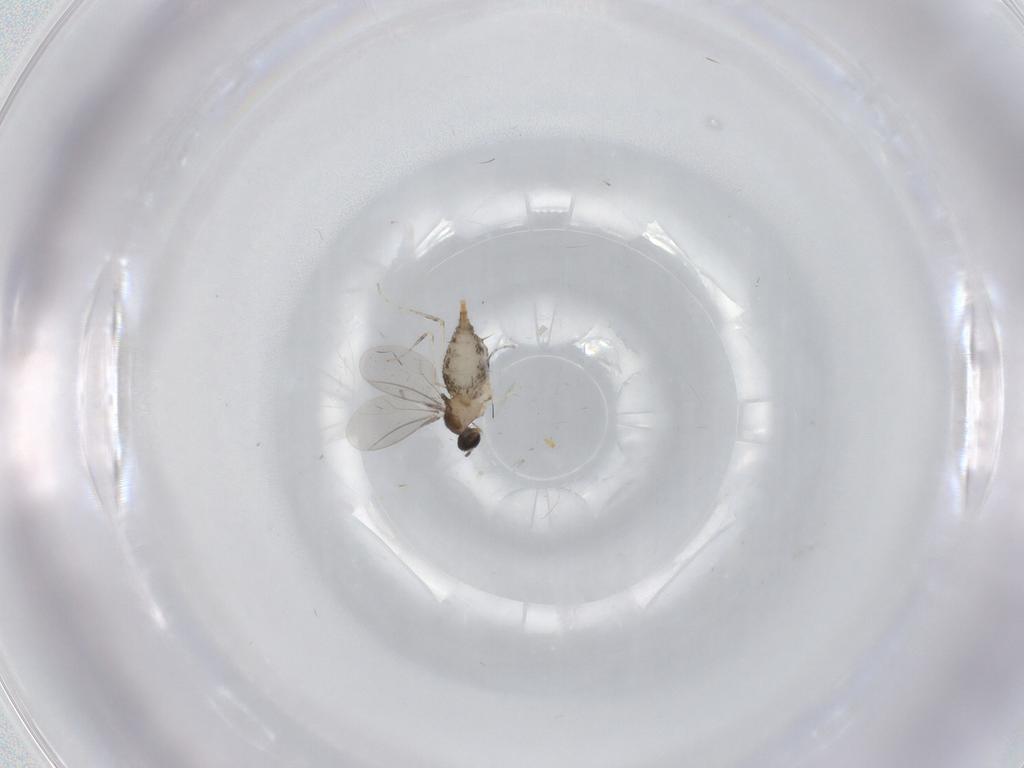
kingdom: Animalia
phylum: Arthropoda
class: Insecta
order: Diptera
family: Cecidomyiidae
